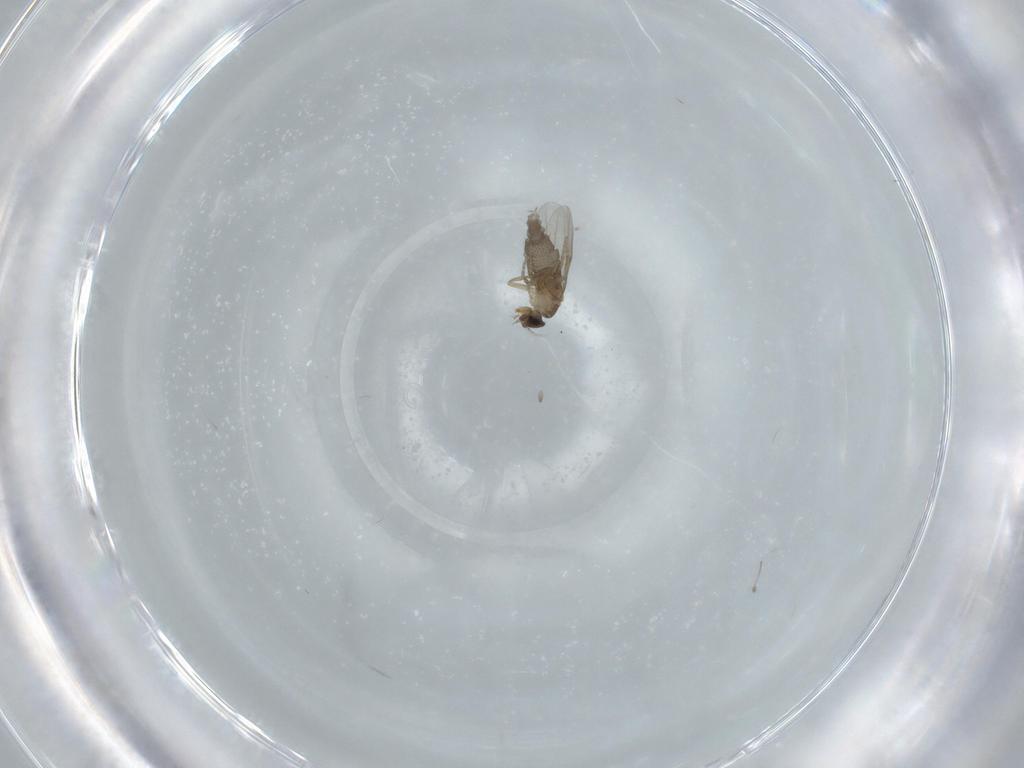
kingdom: Animalia
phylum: Arthropoda
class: Insecta
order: Diptera
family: Phoridae
